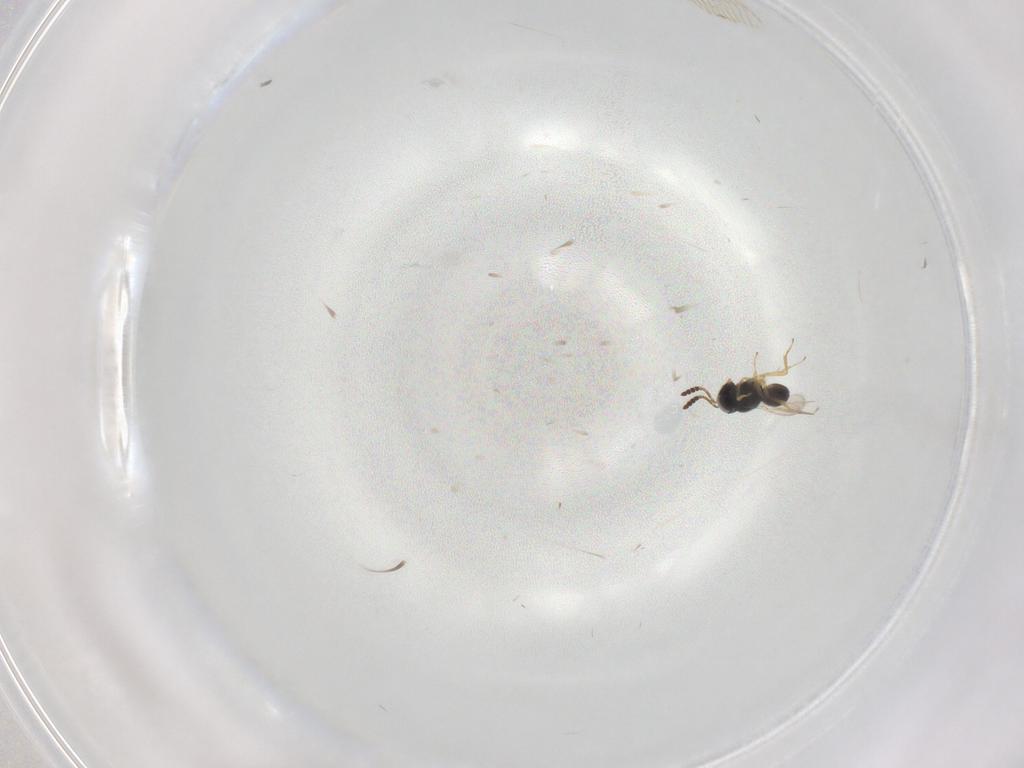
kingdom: Animalia
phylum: Arthropoda
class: Insecta
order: Hymenoptera
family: Scelionidae
